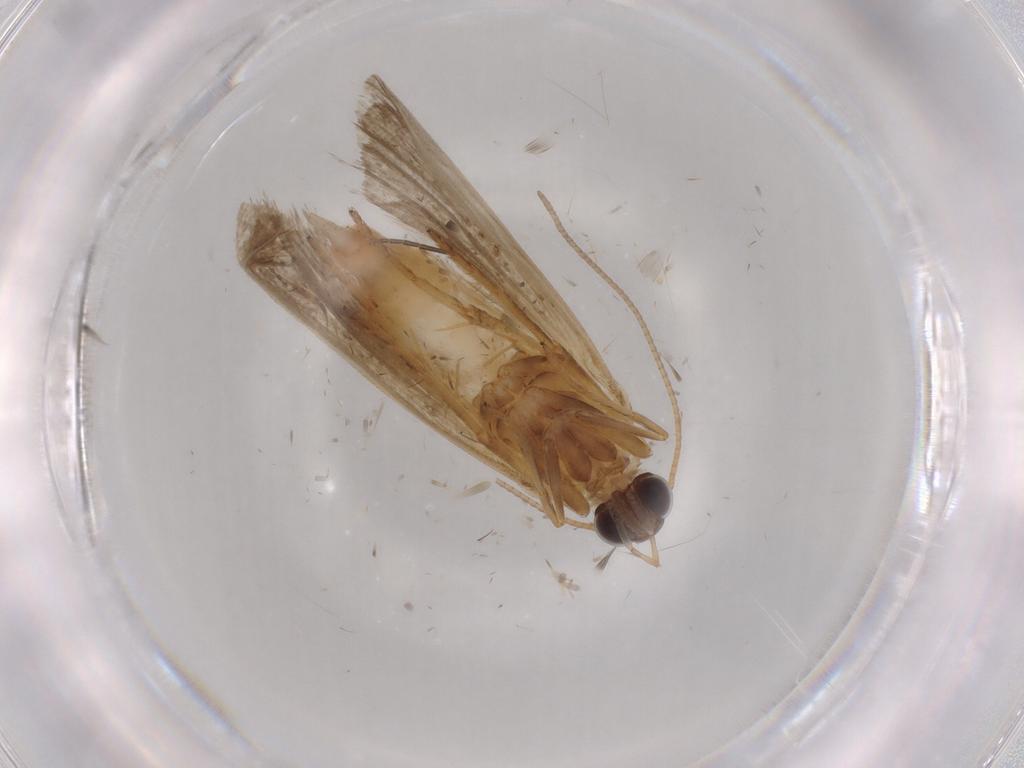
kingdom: Animalia
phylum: Arthropoda
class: Insecta
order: Lepidoptera
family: Noctuidae
